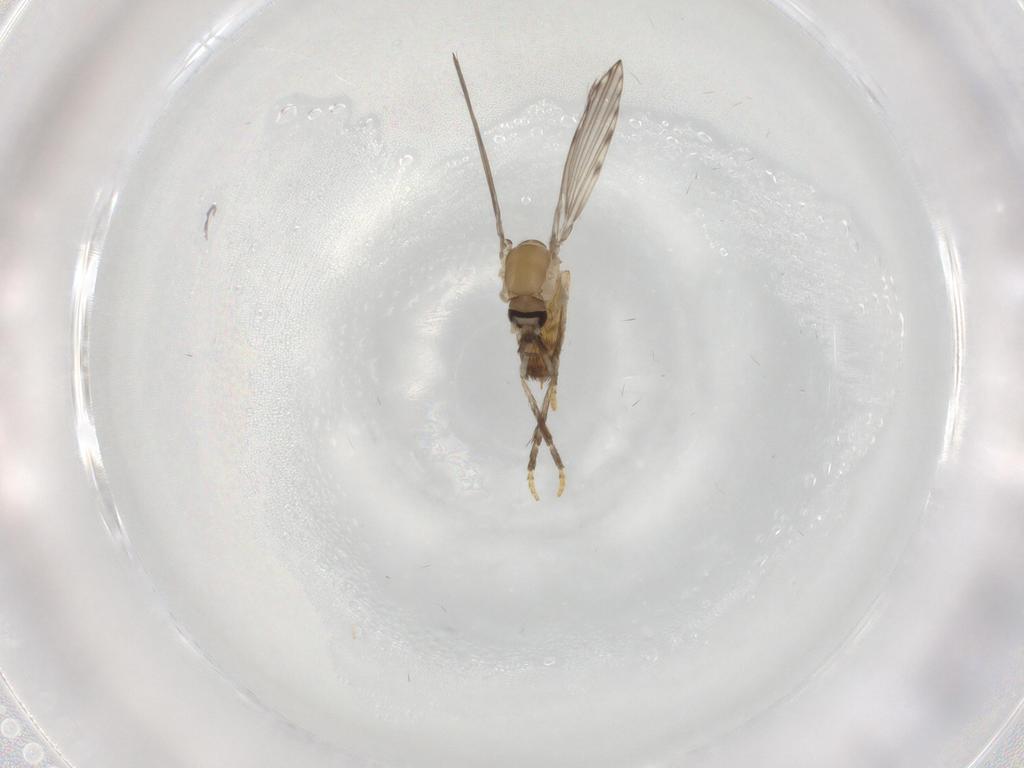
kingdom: Animalia
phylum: Arthropoda
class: Insecta
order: Diptera
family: Psychodidae
